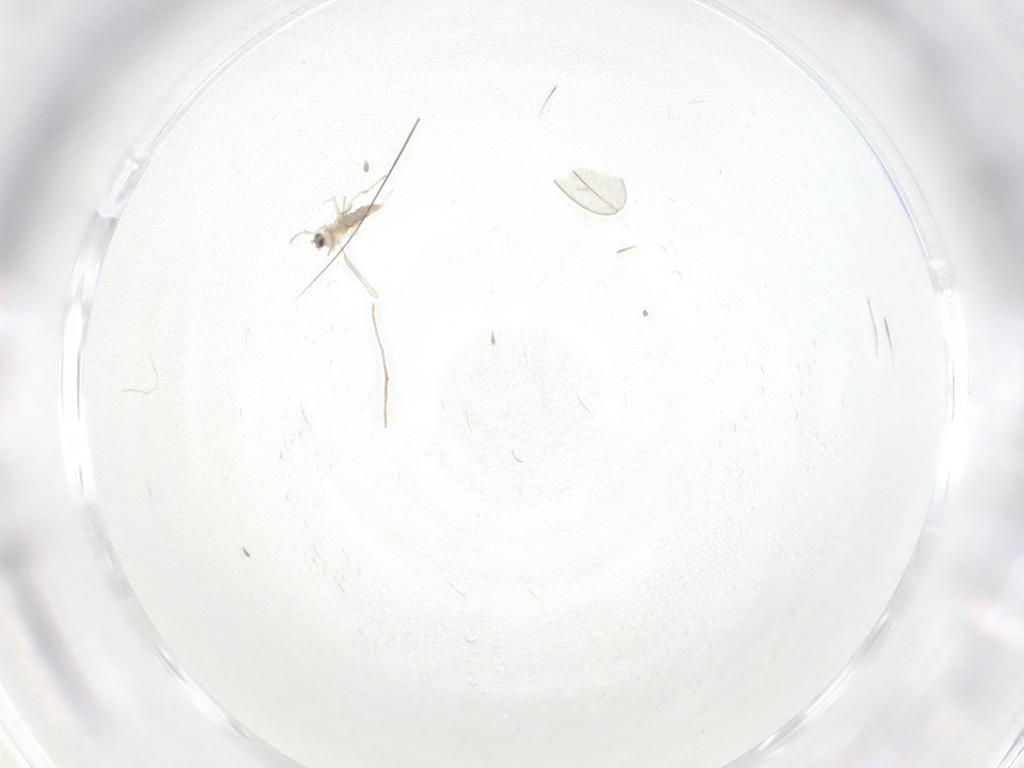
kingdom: Animalia
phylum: Arthropoda
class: Insecta
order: Diptera
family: Cecidomyiidae
